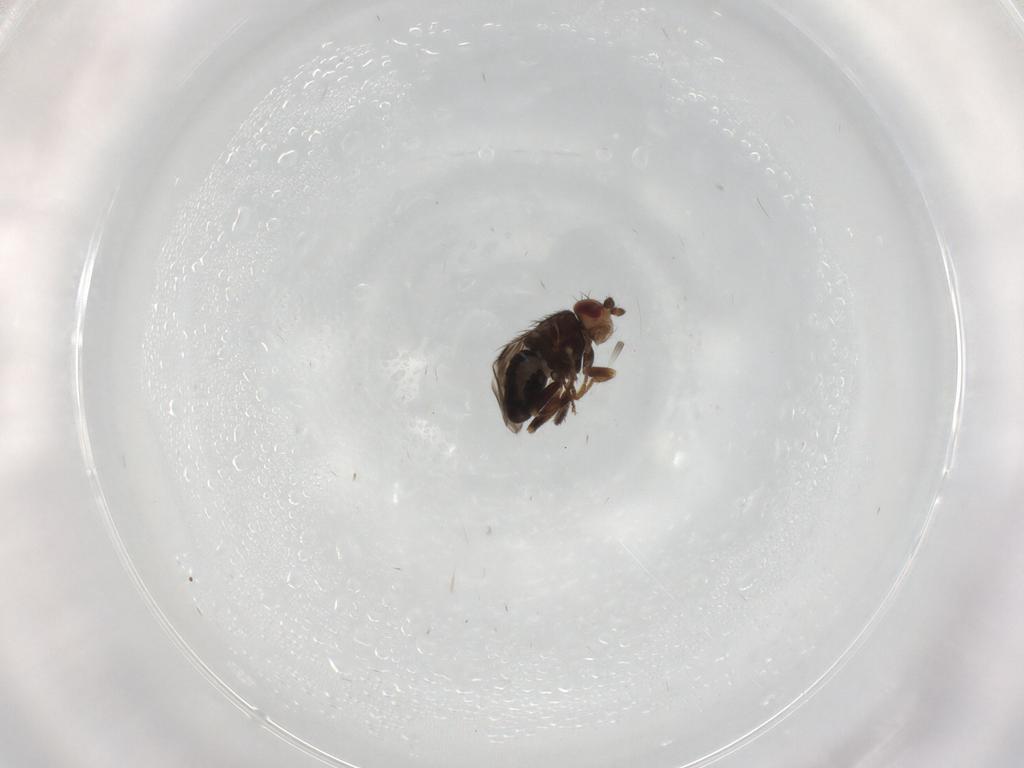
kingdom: Animalia
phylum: Arthropoda
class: Insecta
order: Diptera
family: Sphaeroceridae
